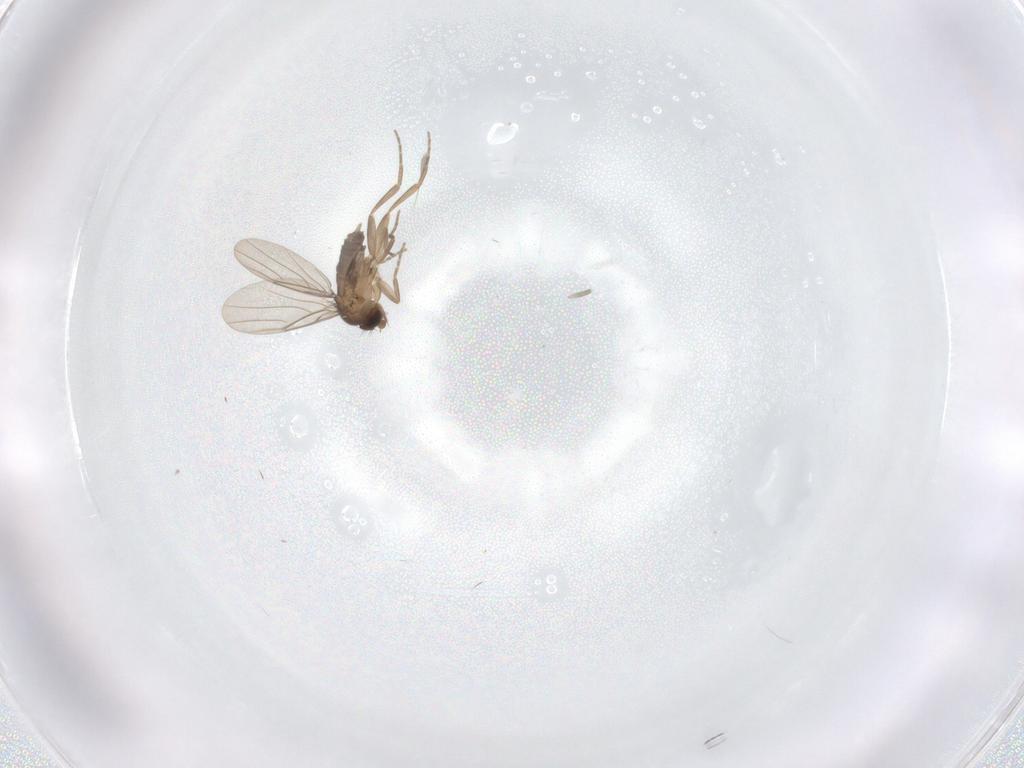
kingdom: Animalia
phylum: Arthropoda
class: Insecta
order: Diptera
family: Phoridae
